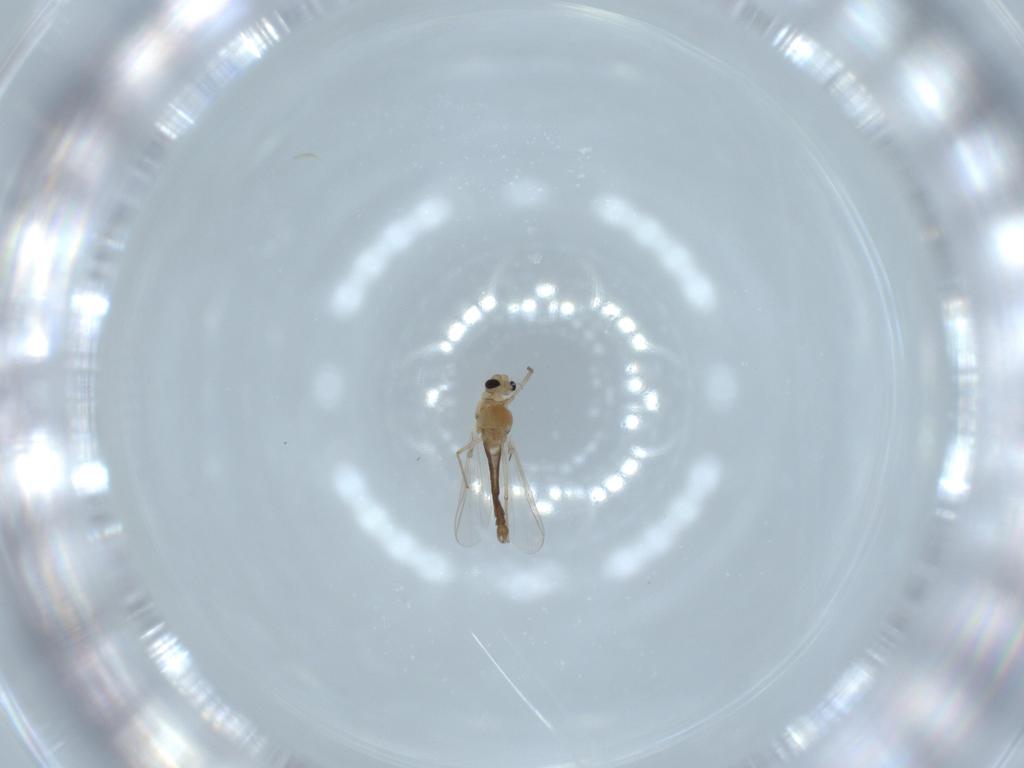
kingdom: Animalia
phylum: Arthropoda
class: Insecta
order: Diptera
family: Chironomidae
